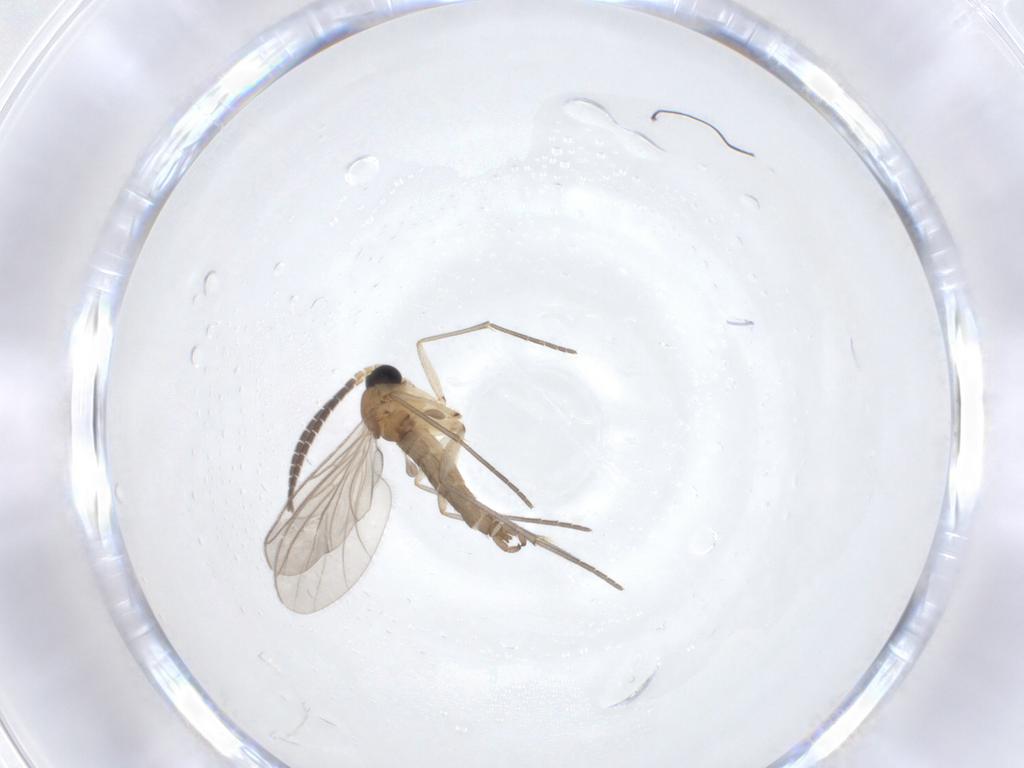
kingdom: Animalia
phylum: Arthropoda
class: Insecta
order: Diptera
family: Sciaridae
